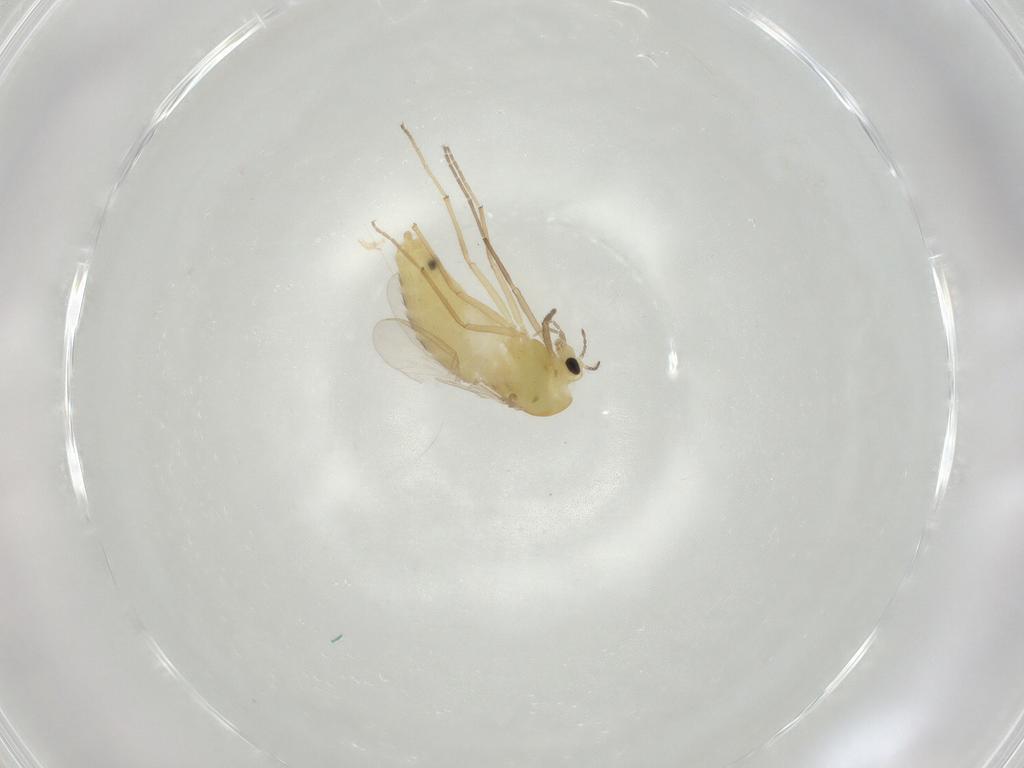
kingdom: Animalia
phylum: Arthropoda
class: Insecta
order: Diptera
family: Chironomidae
